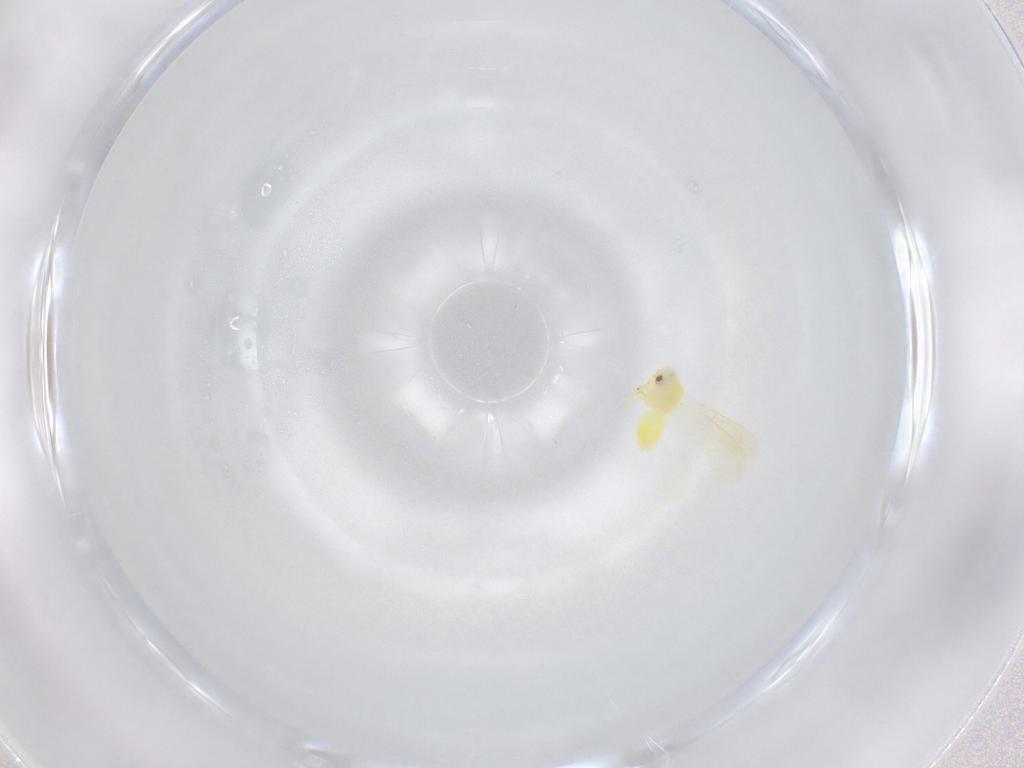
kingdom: Animalia
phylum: Arthropoda
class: Insecta
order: Hemiptera
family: Aleyrodidae
